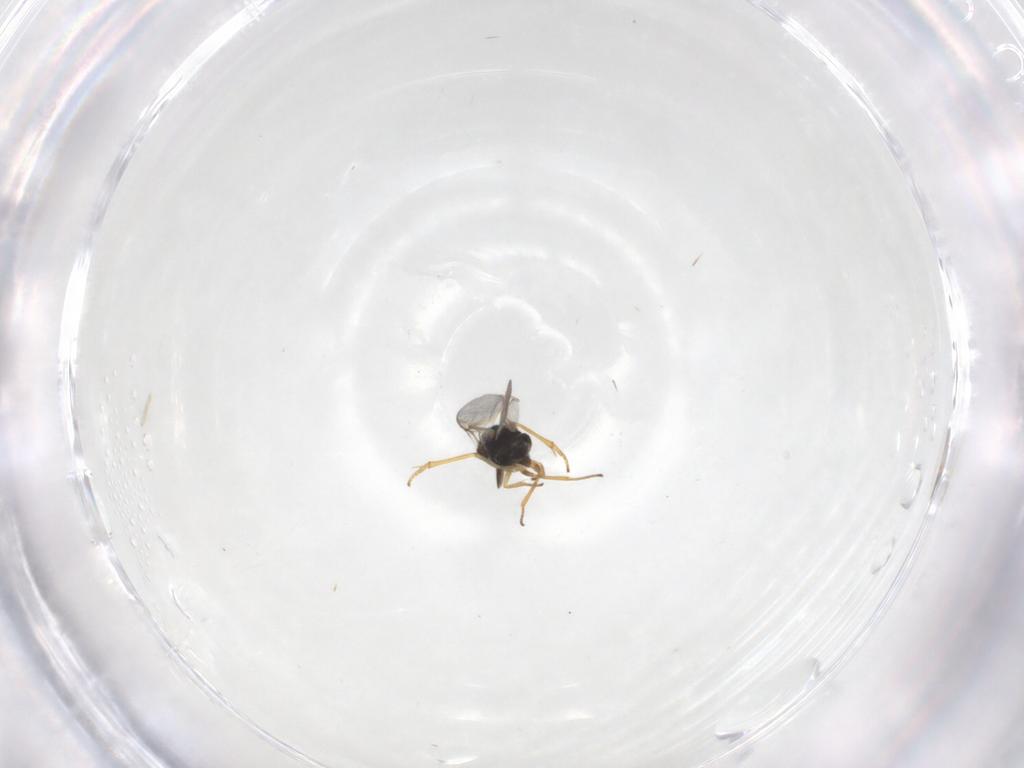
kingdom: Animalia
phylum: Arthropoda
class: Insecta
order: Hymenoptera
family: Encyrtidae
